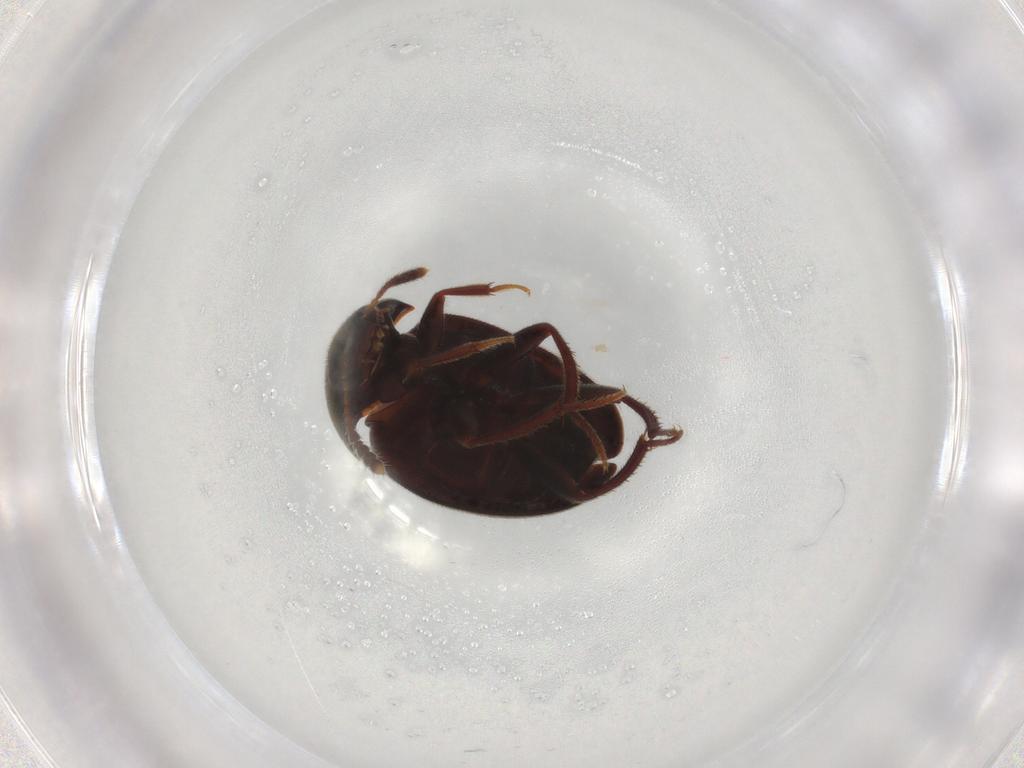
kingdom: Animalia
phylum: Arthropoda
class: Insecta
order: Coleoptera
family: Leiodidae
